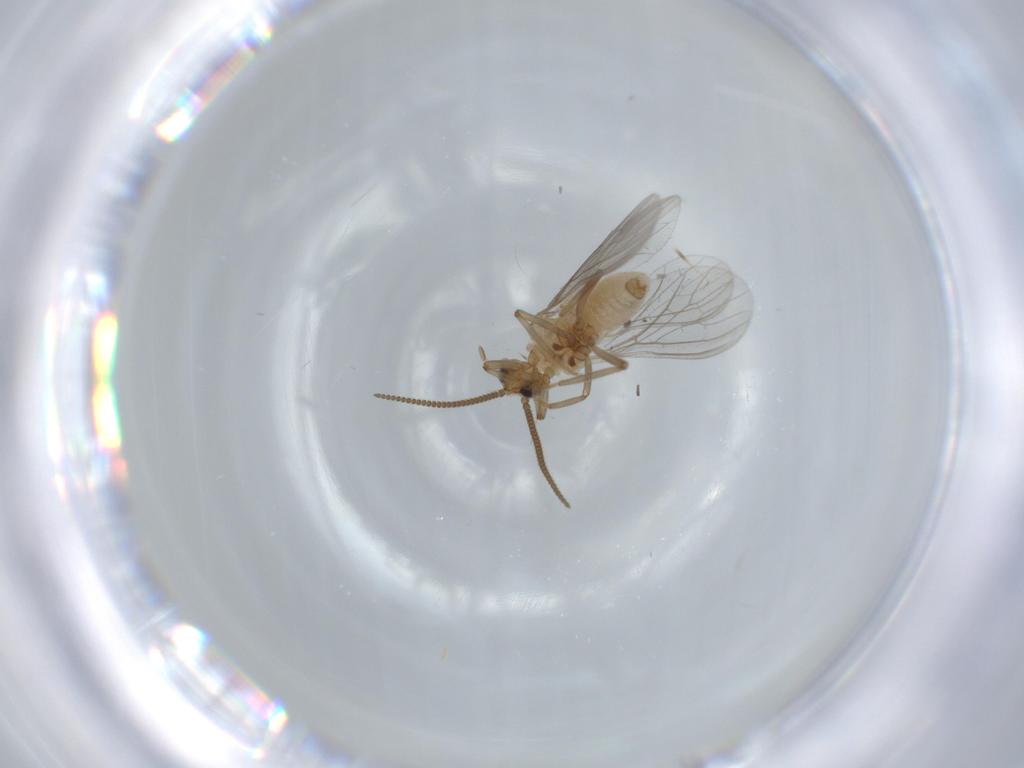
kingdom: Animalia
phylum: Arthropoda
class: Insecta
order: Neuroptera
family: Coniopterygidae
